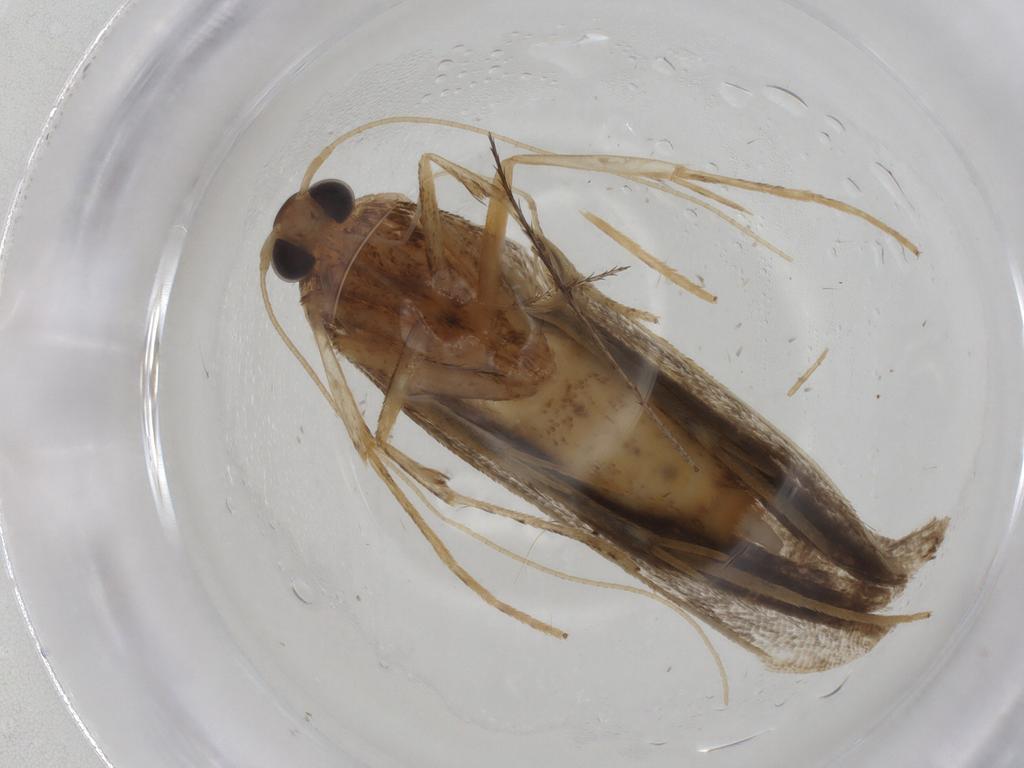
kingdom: Animalia
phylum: Arthropoda
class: Insecta
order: Lepidoptera
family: Autostichidae
